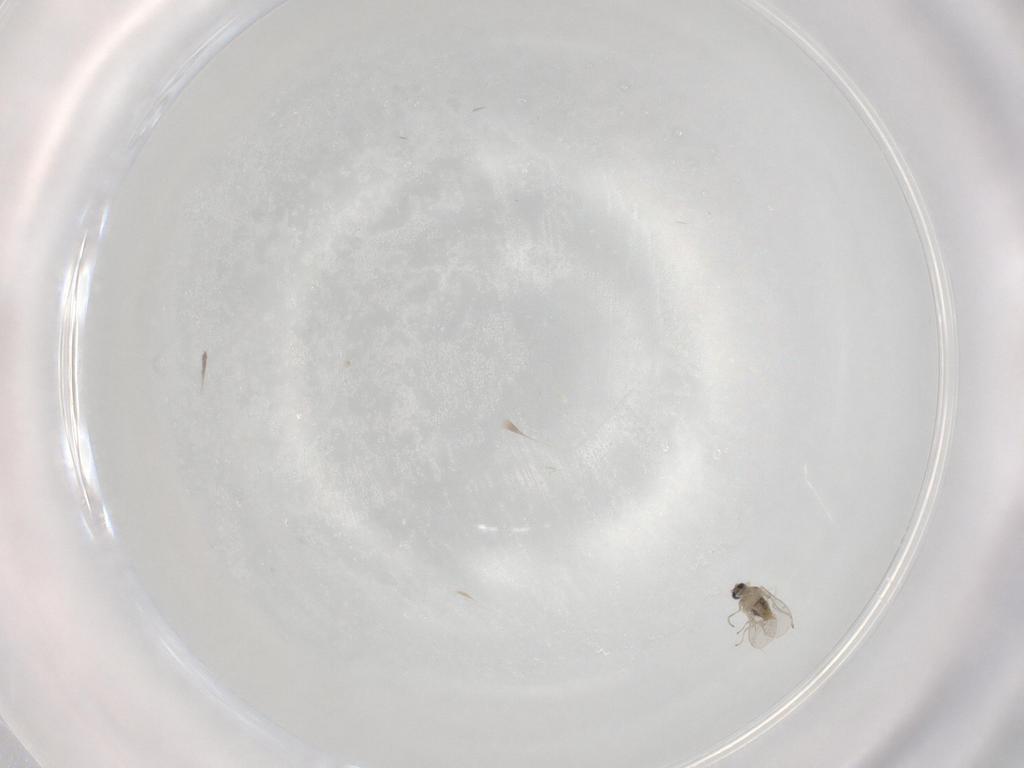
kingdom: Animalia
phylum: Arthropoda
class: Insecta
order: Diptera
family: Cecidomyiidae
